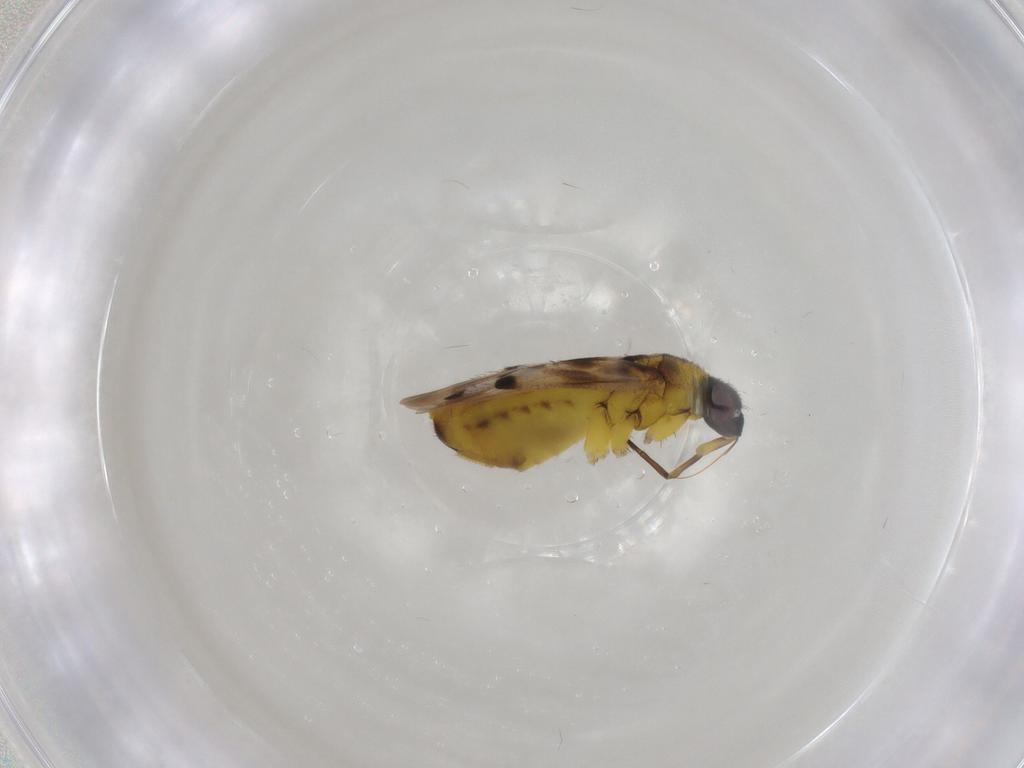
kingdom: Animalia
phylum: Arthropoda
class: Insecta
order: Hemiptera
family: Miridae
